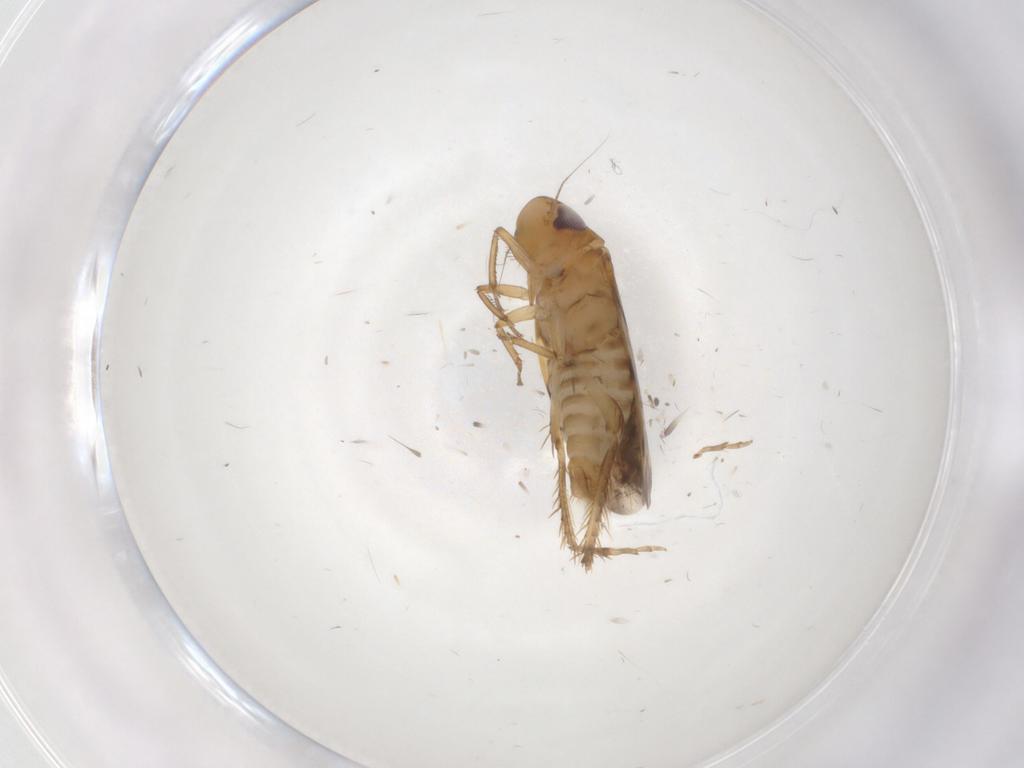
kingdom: Animalia
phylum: Arthropoda
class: Insecta
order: Hemiptera
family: Cicadellidae
